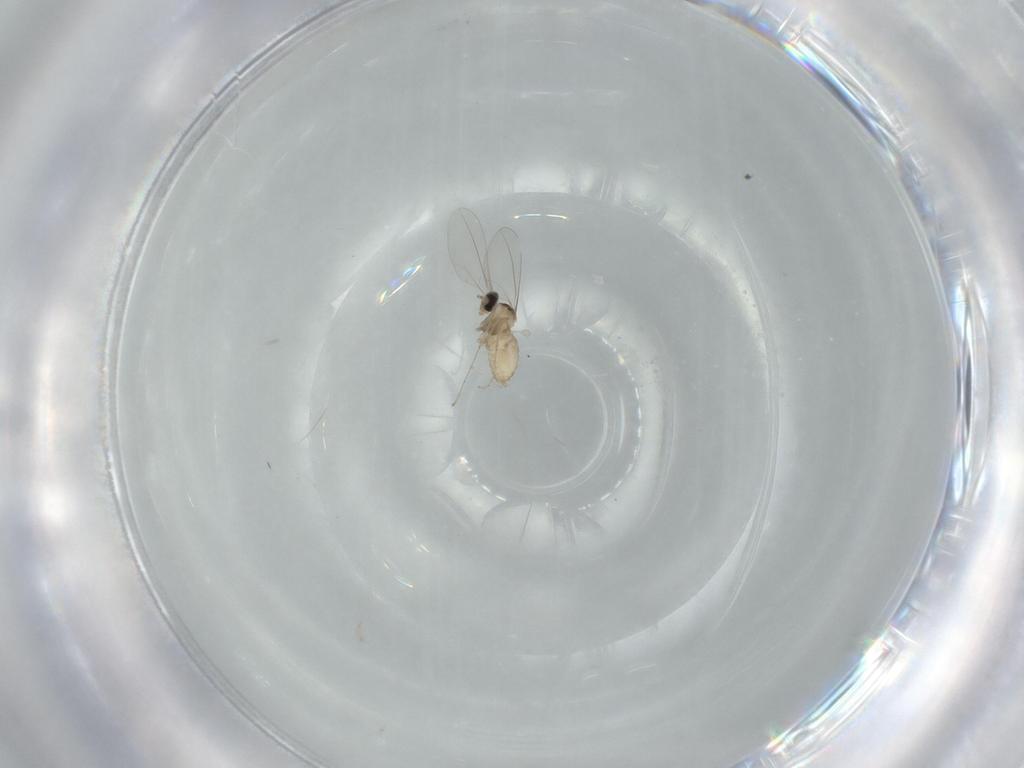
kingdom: Animalia
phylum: Arthropoda
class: Insecta
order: Diptera
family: Cecidomyiidae
